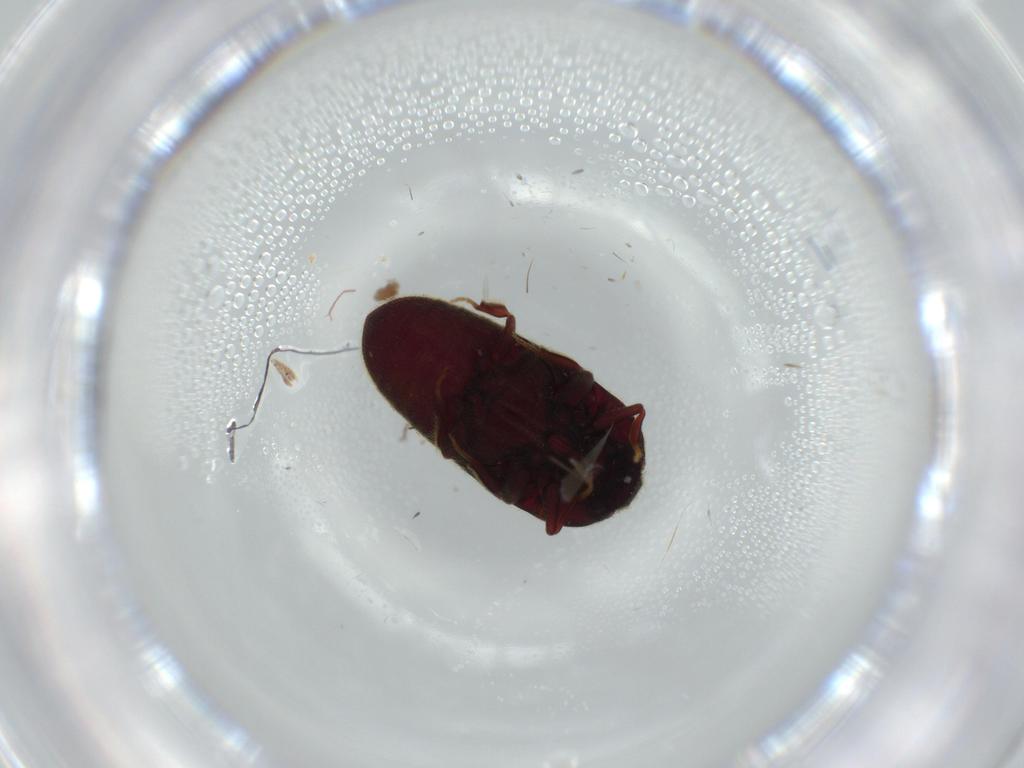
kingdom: Animalia
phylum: Arthropoda
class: Insecta
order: Coleoptera
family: Throscidae
